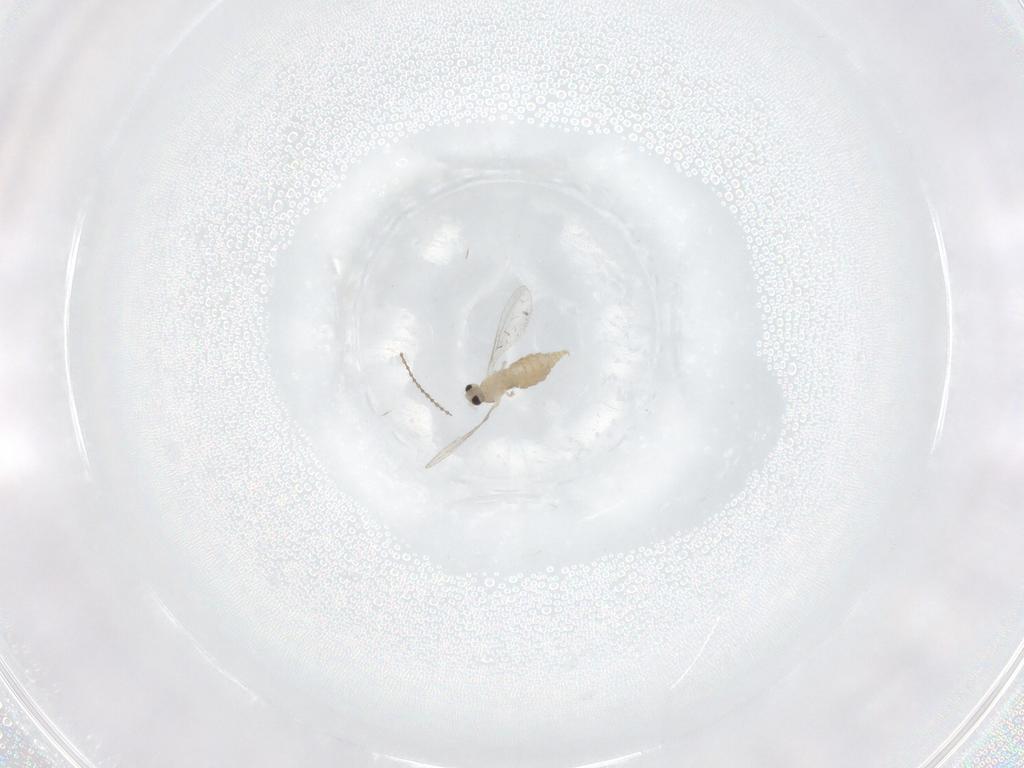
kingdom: Animalia
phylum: Arthropoda
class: Insecta
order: Diptera
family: Cecidomyiidae
